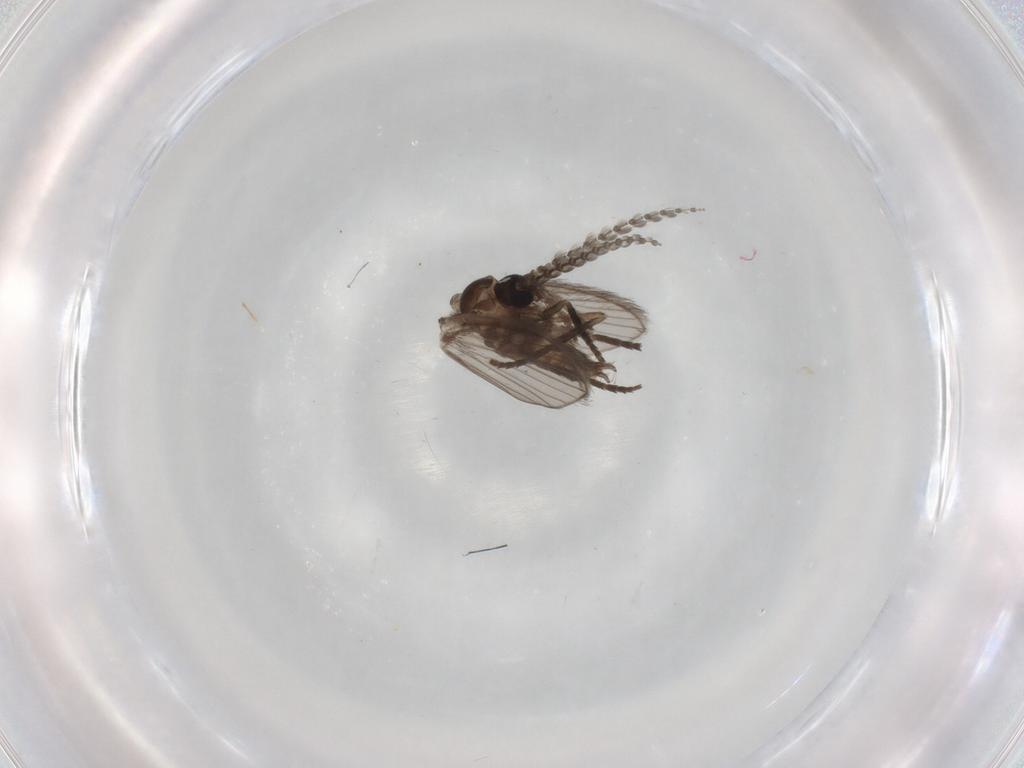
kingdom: Animalia
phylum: Arthropoda
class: Insecta
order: Diptera
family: Psychodidae
